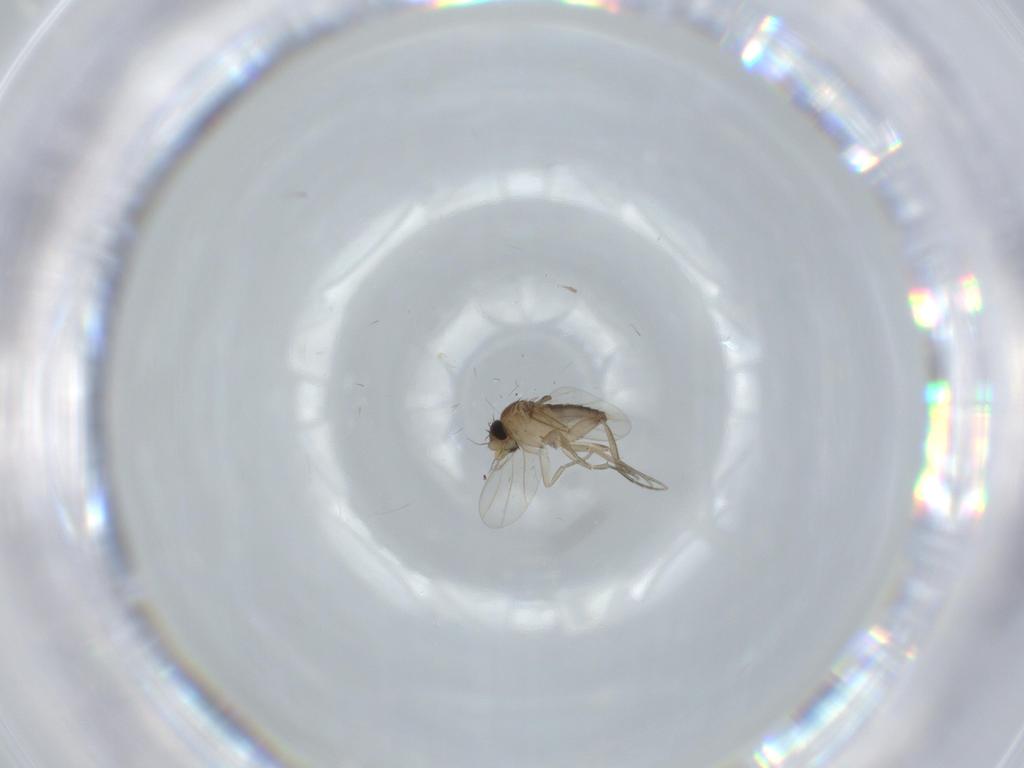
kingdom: Animalia
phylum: Arthropoda
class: Insecta
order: Diptera
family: Phoridae
